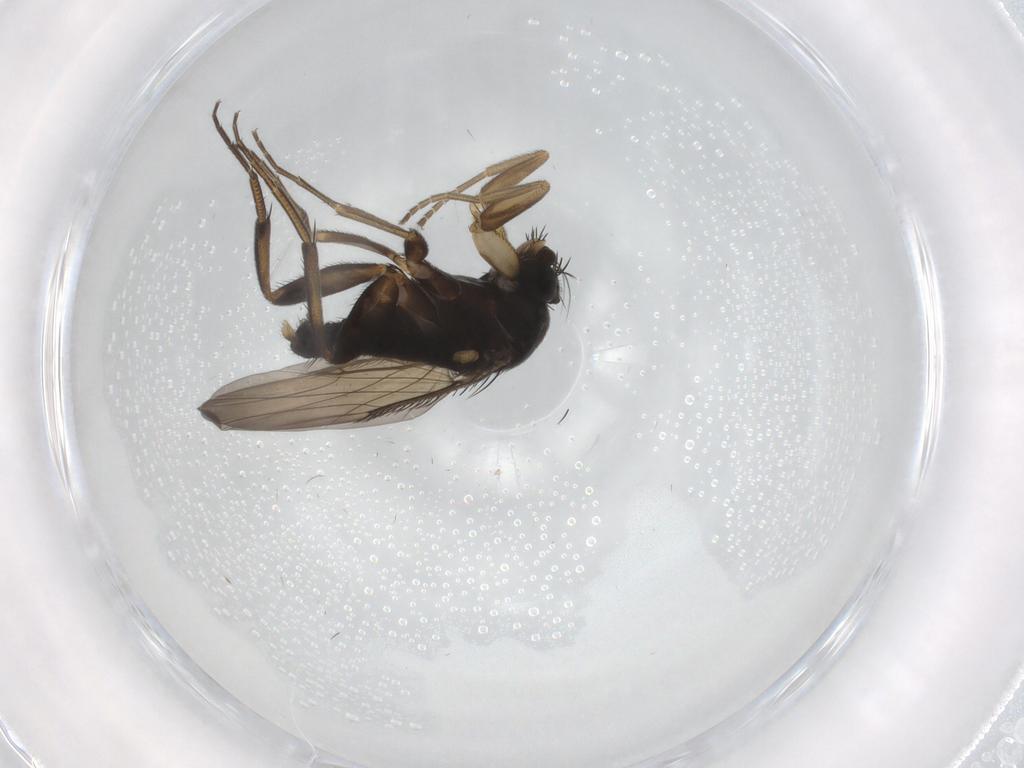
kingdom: Animalia
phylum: Arthropoda
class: Insecta
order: Diptera
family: Phoridae
